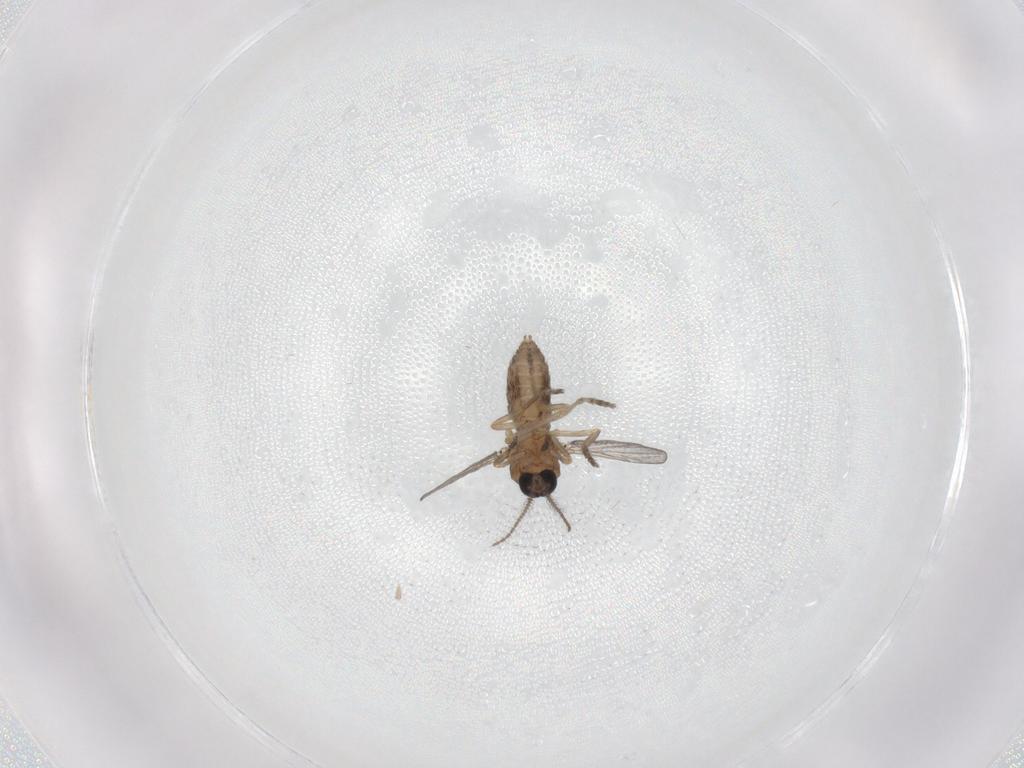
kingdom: Animalia
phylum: Arthropoda
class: Insecta
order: Diptera
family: Ceratopogonidae
